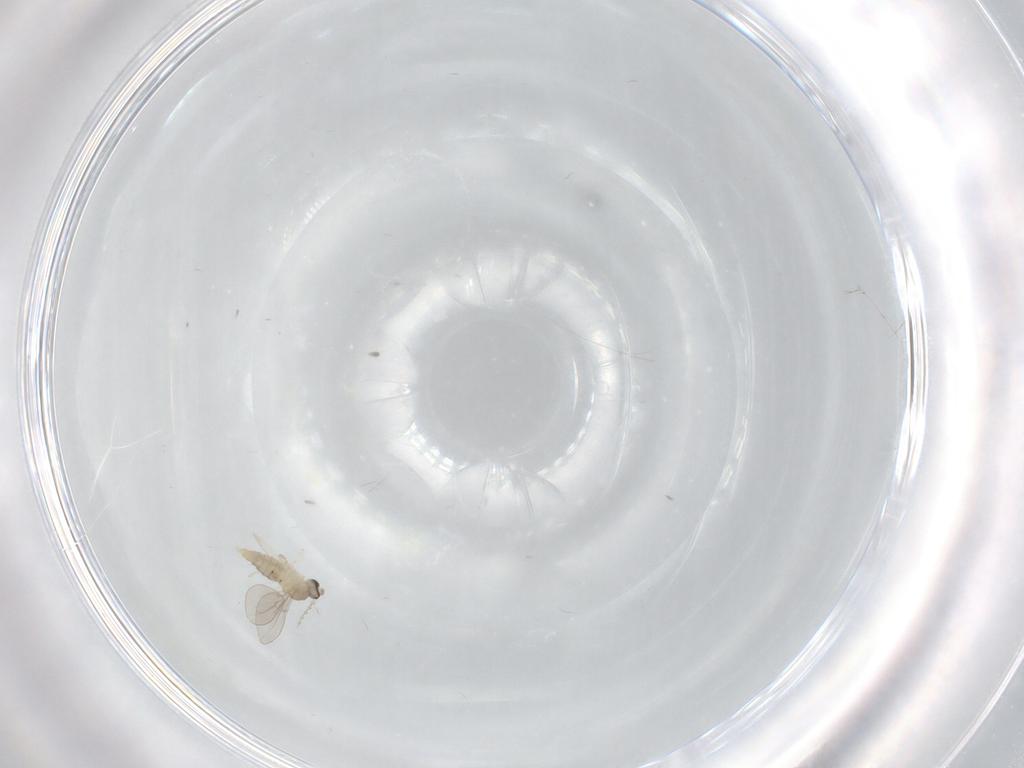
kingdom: Animalia
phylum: Arthropoda
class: Insecta
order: Diptera
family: Cecidomyiidae
